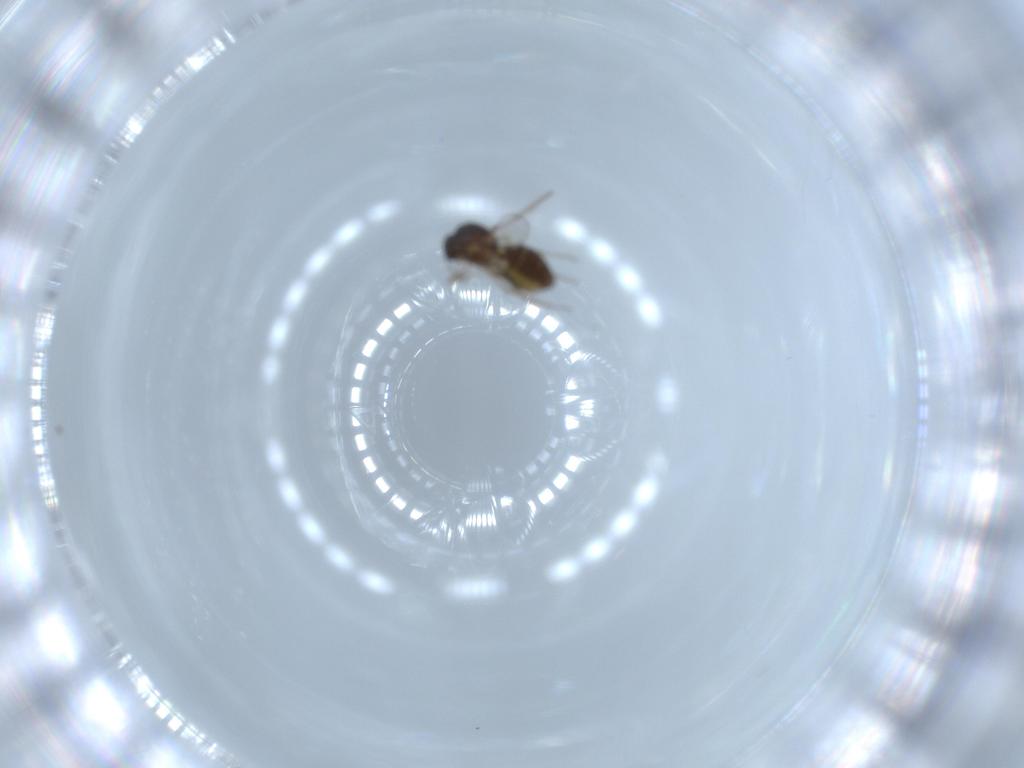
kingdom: Animalia
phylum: Arthropoda
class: Insecta
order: Diptera
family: Ceratopogonidae
